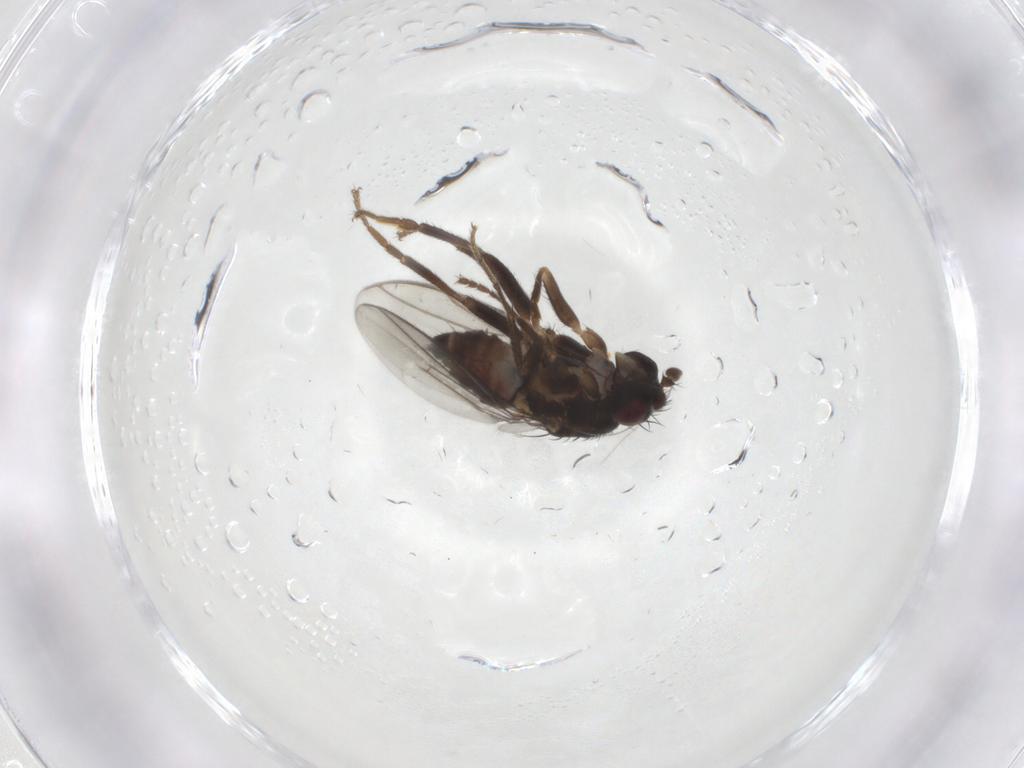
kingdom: Animalia
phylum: Arthropoda
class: Insecta
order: Diptera
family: Sphaeroceridae
